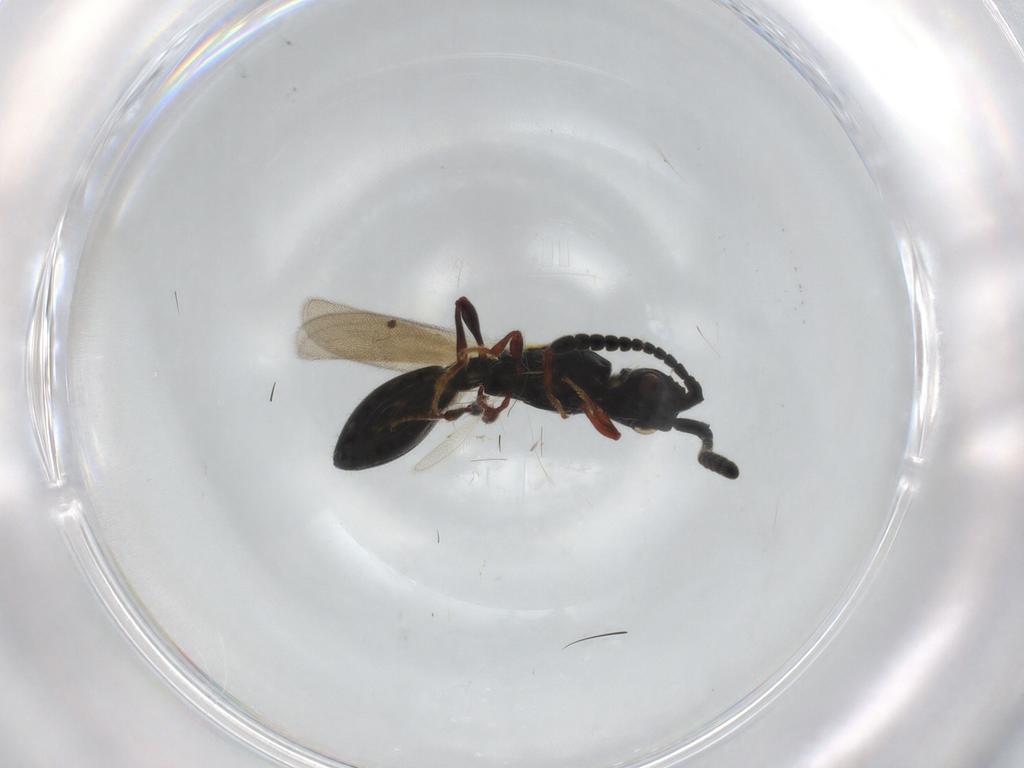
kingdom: Animalia
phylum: Arthropoda
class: Insecta
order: Hymenoptera
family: Diapriidae
